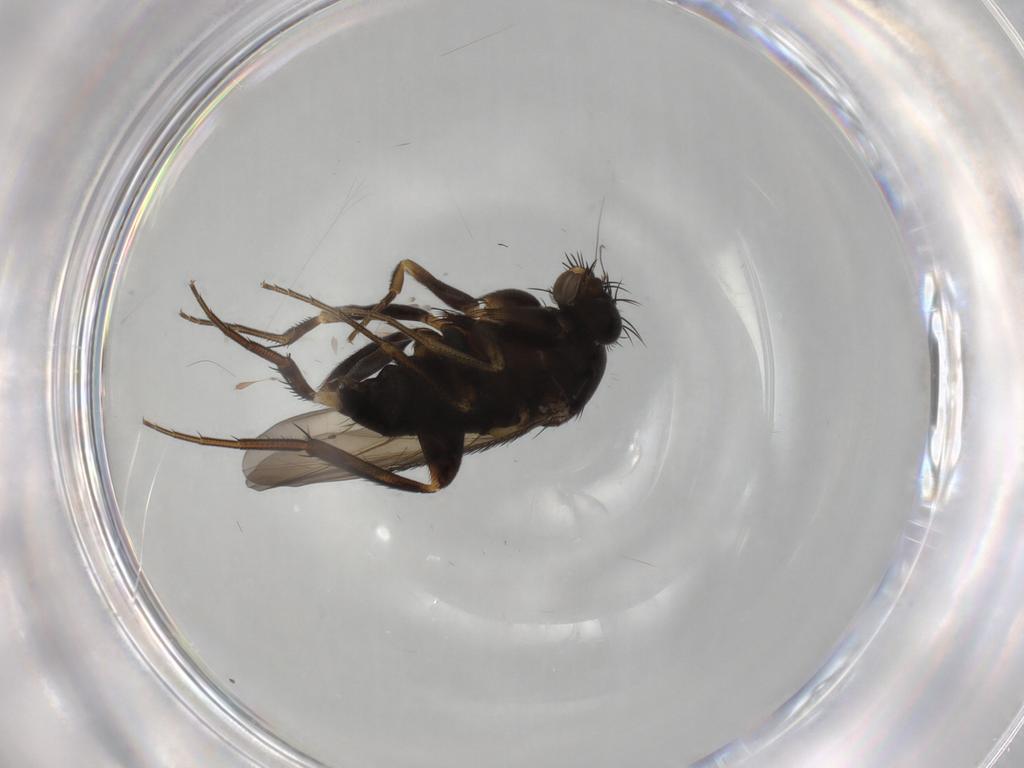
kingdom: Animalia
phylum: Arthropoda
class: Insecta
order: Diptera
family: Phoridae
